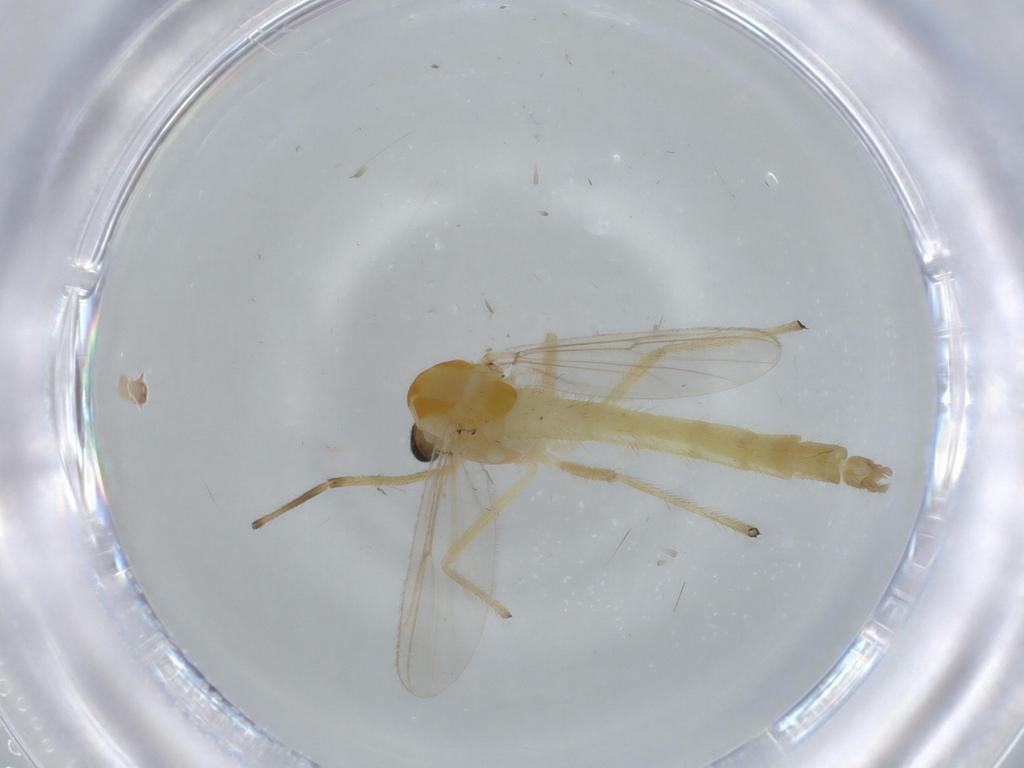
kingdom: Animalia
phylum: Arthropoda
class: Insecta
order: Diptera
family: Chironomidae
